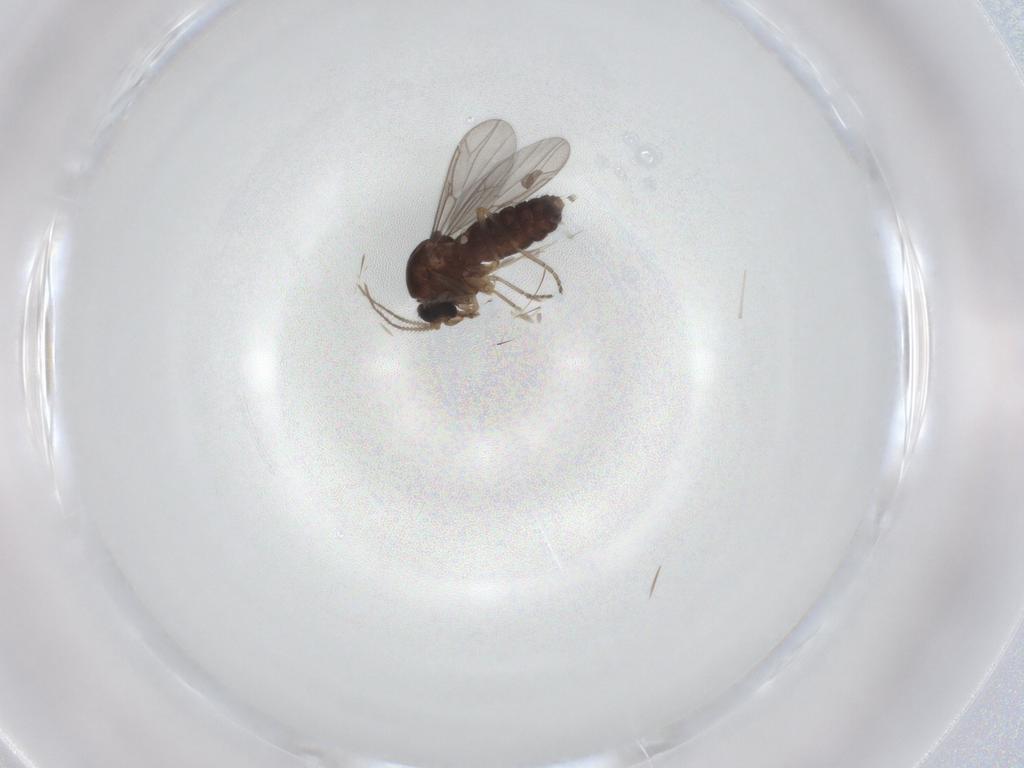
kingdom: Animalia
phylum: Arthropoda
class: Insecta
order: Diptera
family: Ceratopogonidae
